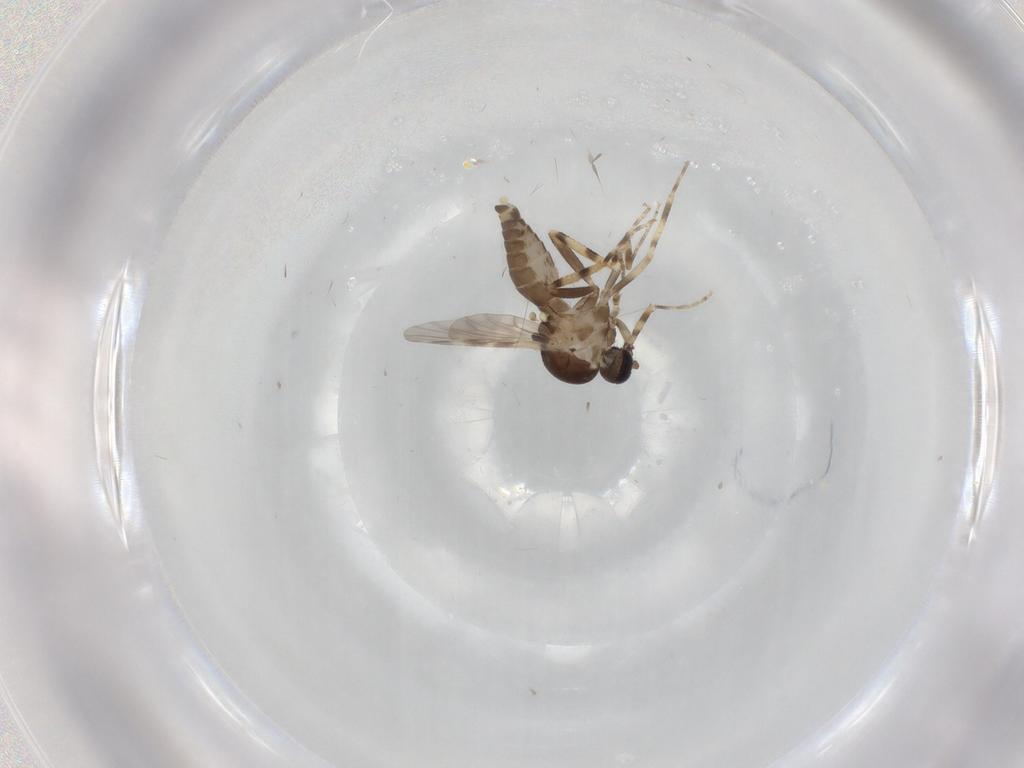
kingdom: Animalia
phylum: Arthropoda
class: Insecta
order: Diptera
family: Ceratopogonidae
